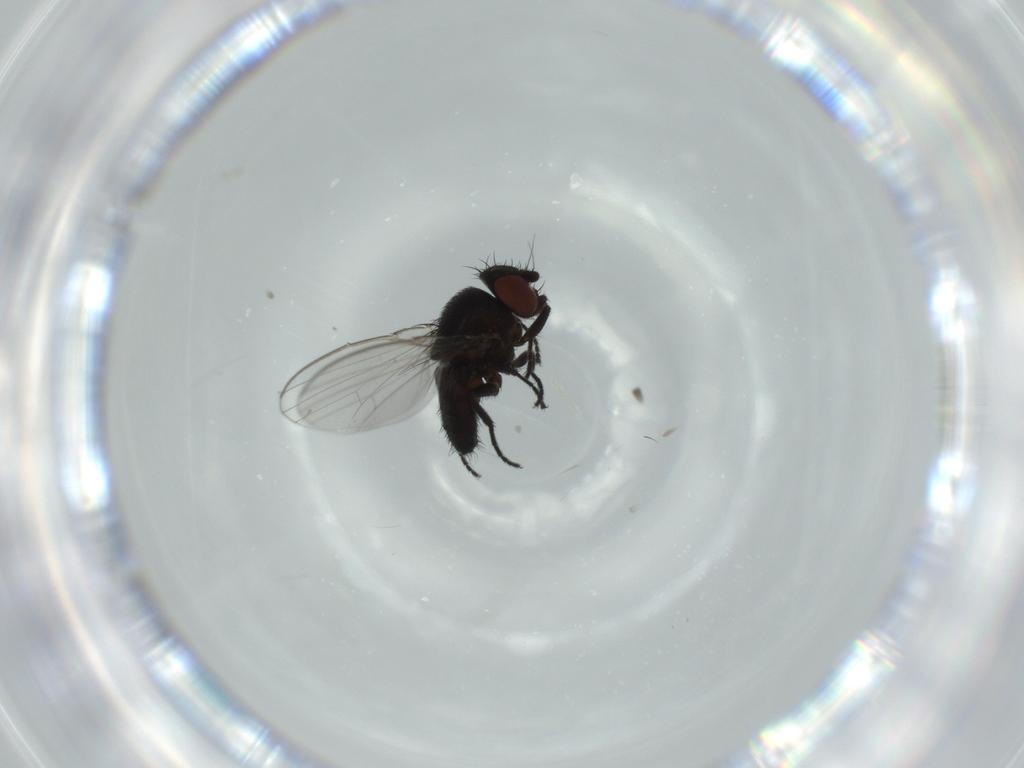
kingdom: Animalia
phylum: Arthropoda
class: Insecta
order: Diptera
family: Milichiidae
